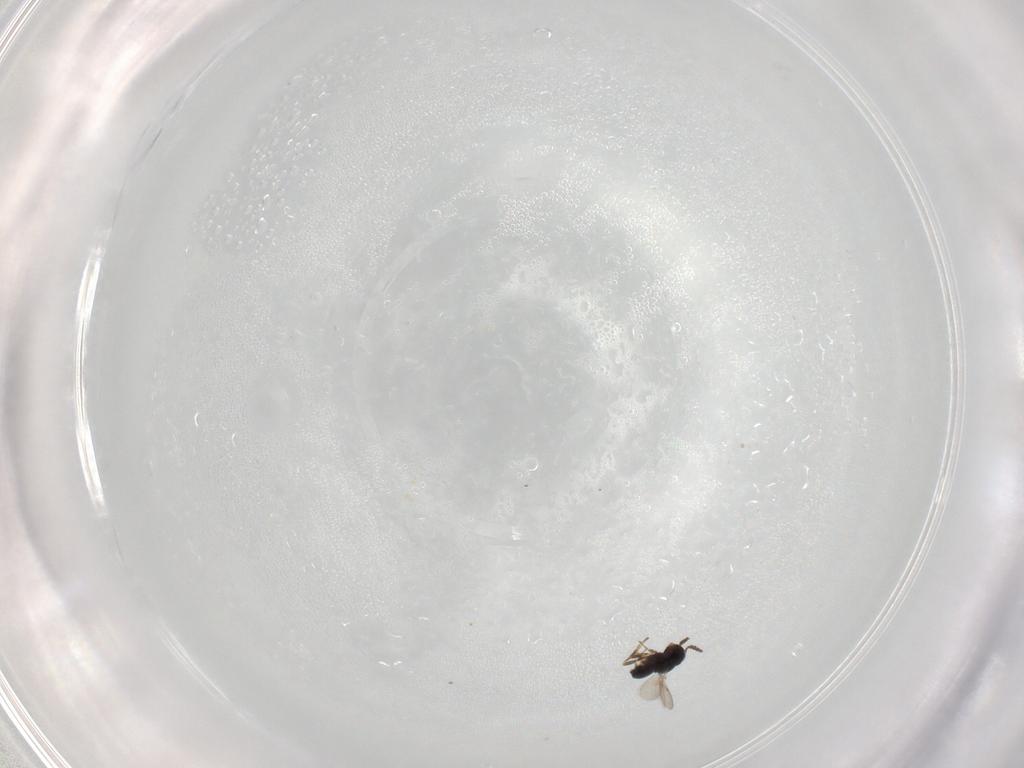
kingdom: Animalia
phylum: Arthropoda
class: Insecta
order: Hymenoptera
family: Scelionidae
